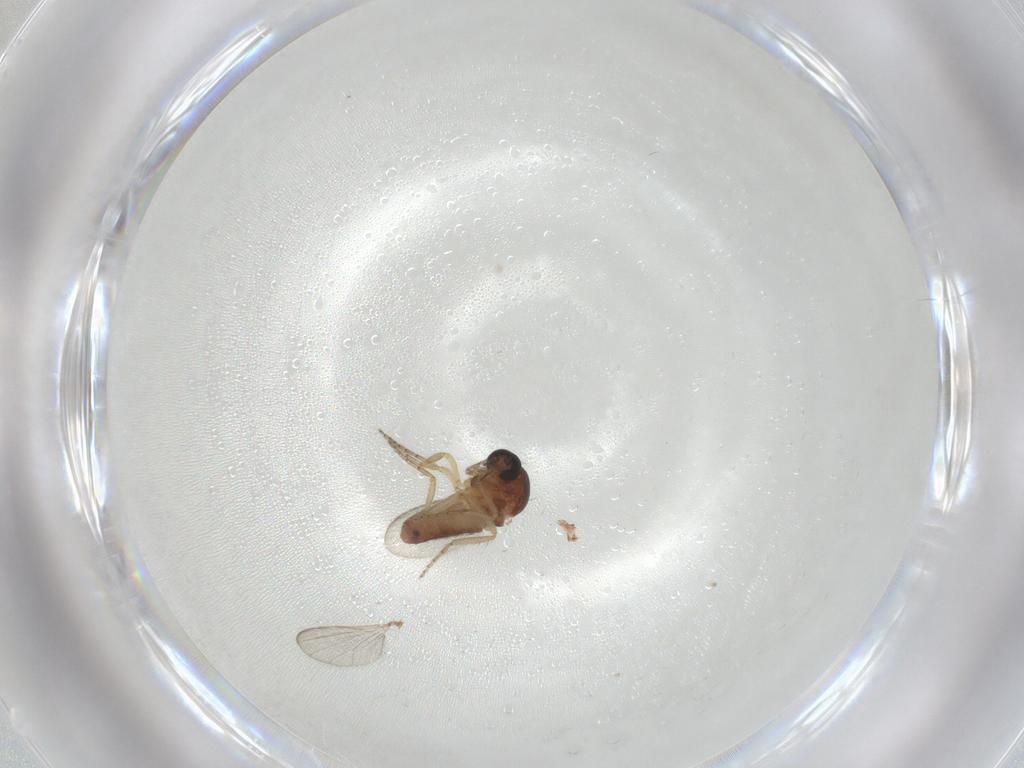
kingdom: Animalia
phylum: Arthropoda
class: Insecta
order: Diptera
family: Ceratopogonidae
